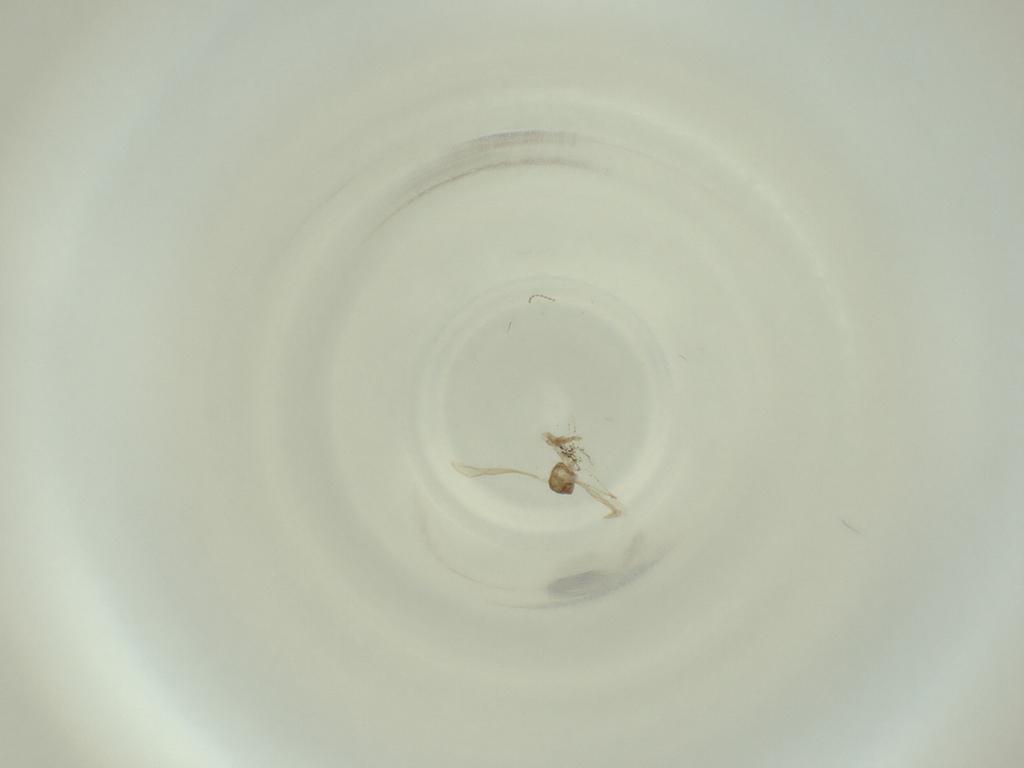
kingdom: Animalia
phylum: Arthropoda
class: Insecta
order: Diptera
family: Cecidomyiidae
